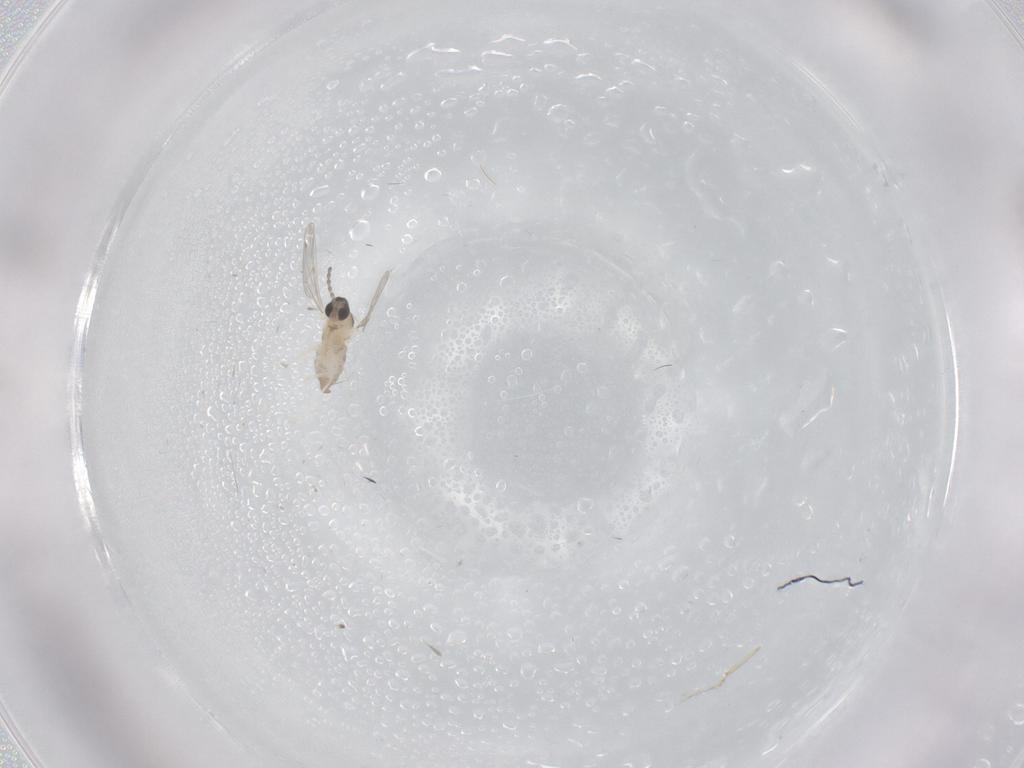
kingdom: Animalia
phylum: Arthropoda
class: Insecta
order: Diptera
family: Cecidomyiidae
